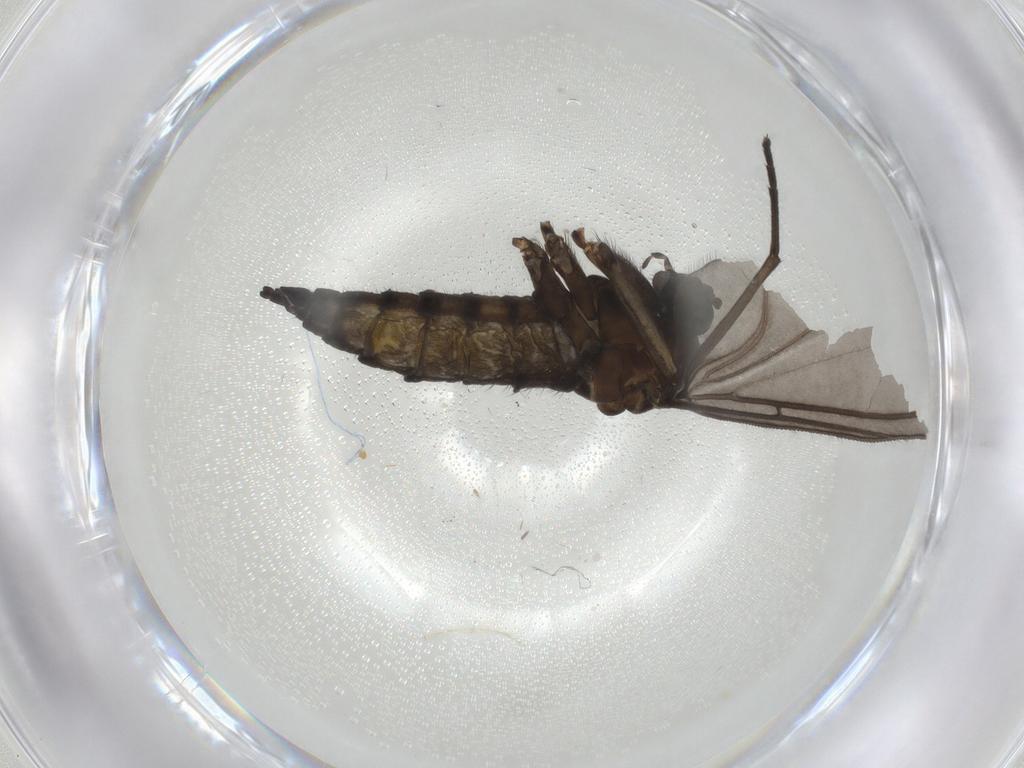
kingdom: Animalia
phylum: Arthropoda
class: Insecta
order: Diptera
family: Sciaridae
